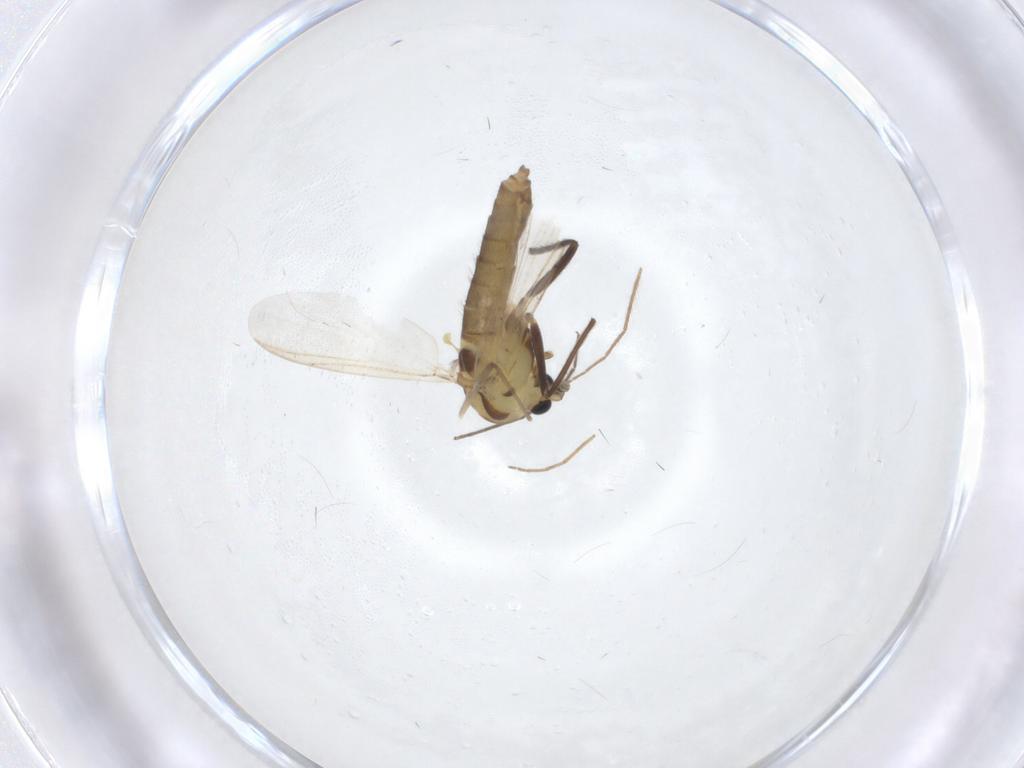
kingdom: Animalia
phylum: Arthropoda
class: Insecta
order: Diptera
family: Chironomidae
